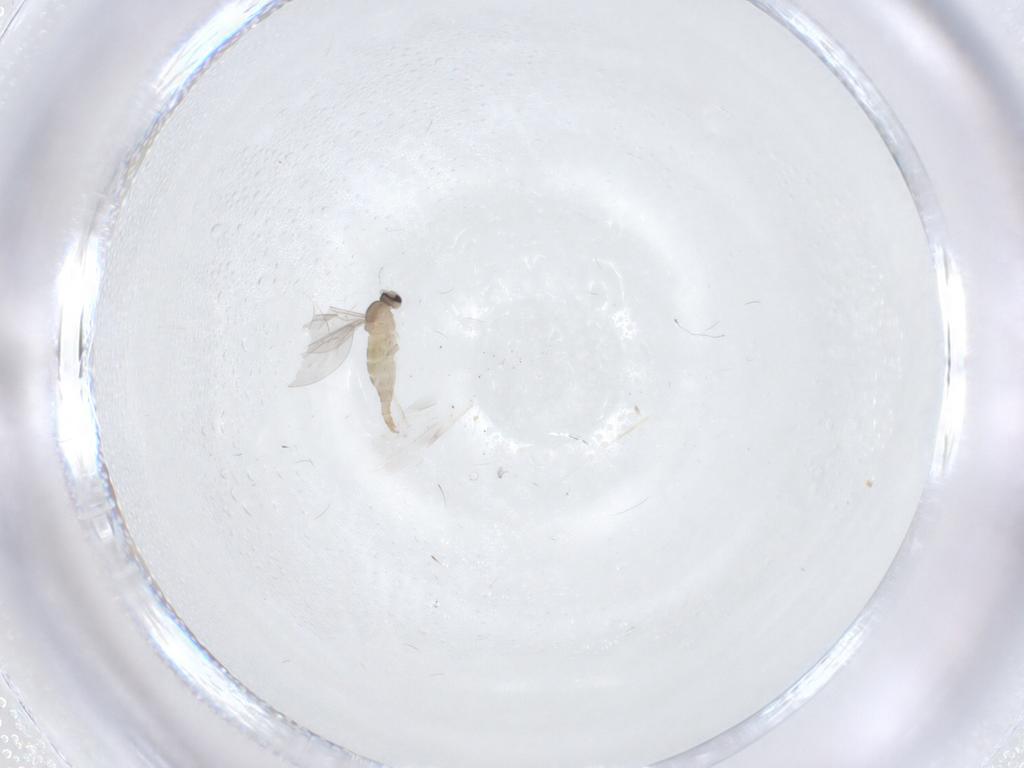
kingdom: Animalia
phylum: Arthropoda
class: Insecta
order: Diptera
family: Cecidomyiidae
